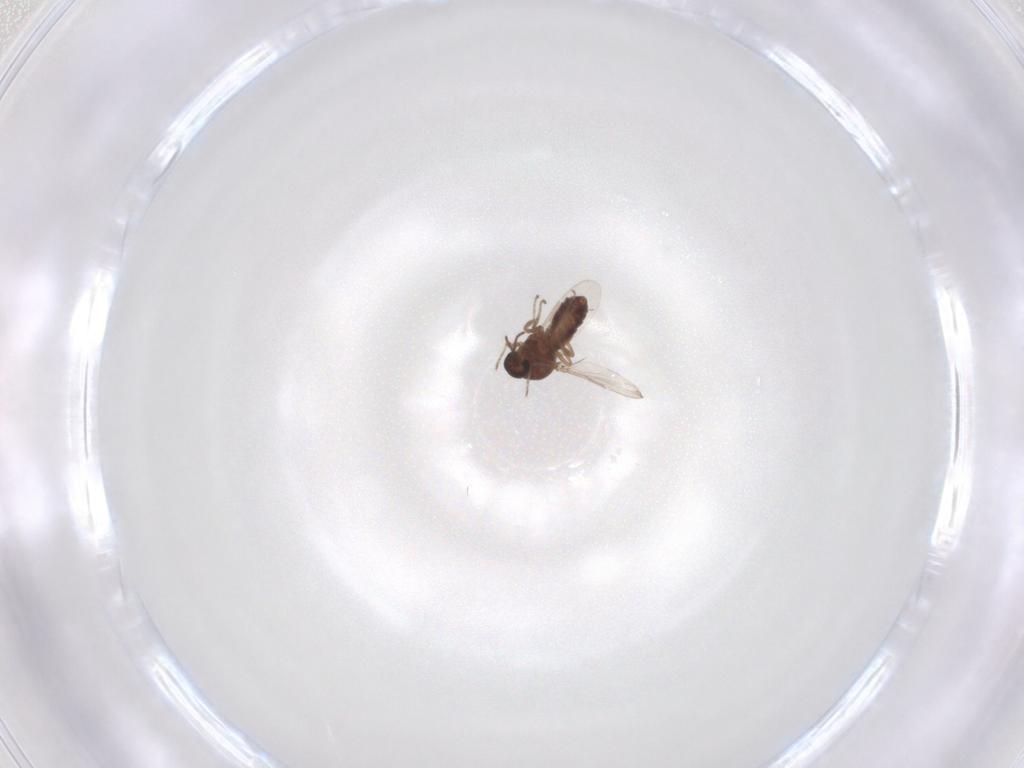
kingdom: Animalia
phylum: Arthropoda
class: Insecta
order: Diptera
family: Ceratopogonidae
